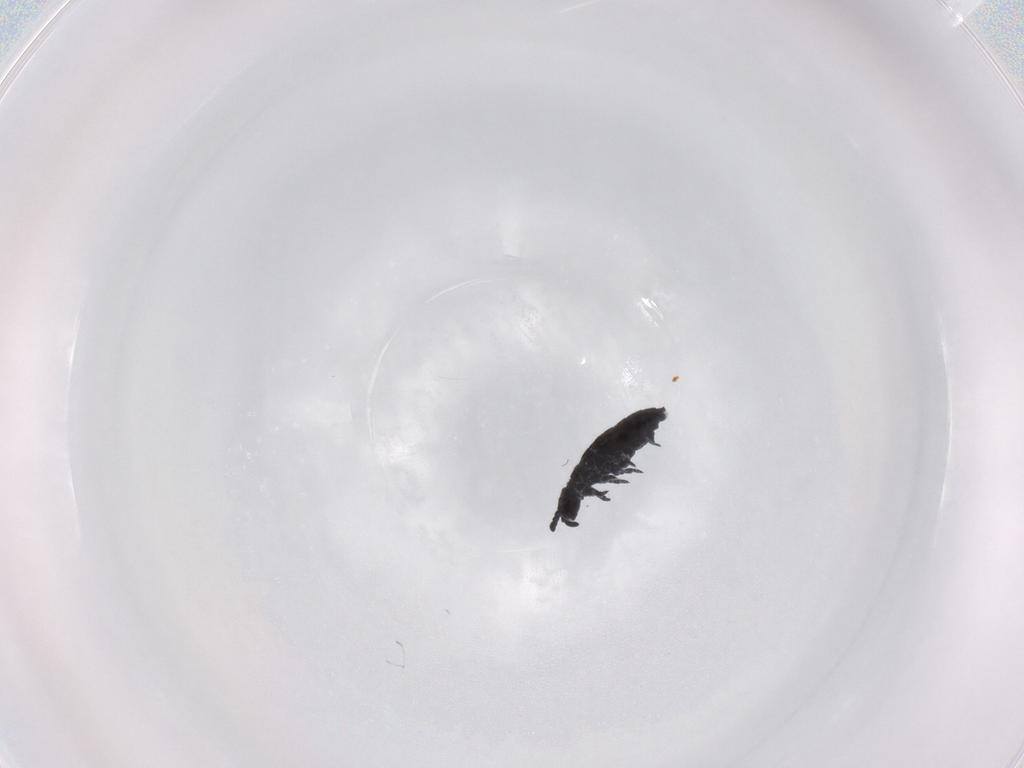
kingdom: Animalia
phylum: Arthropoda
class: Collembola
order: Poduromorpha
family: Hypogastruridae
